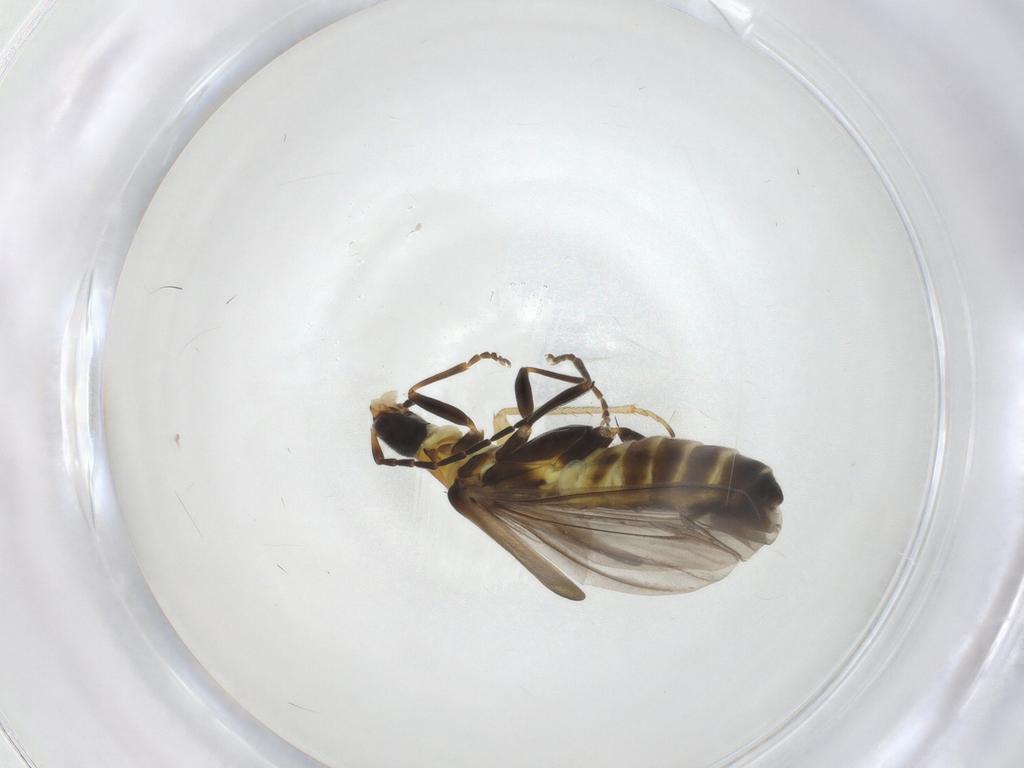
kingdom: Animalia
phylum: Arthropoda
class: Insecta
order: Coleoptera
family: Cantharidae
